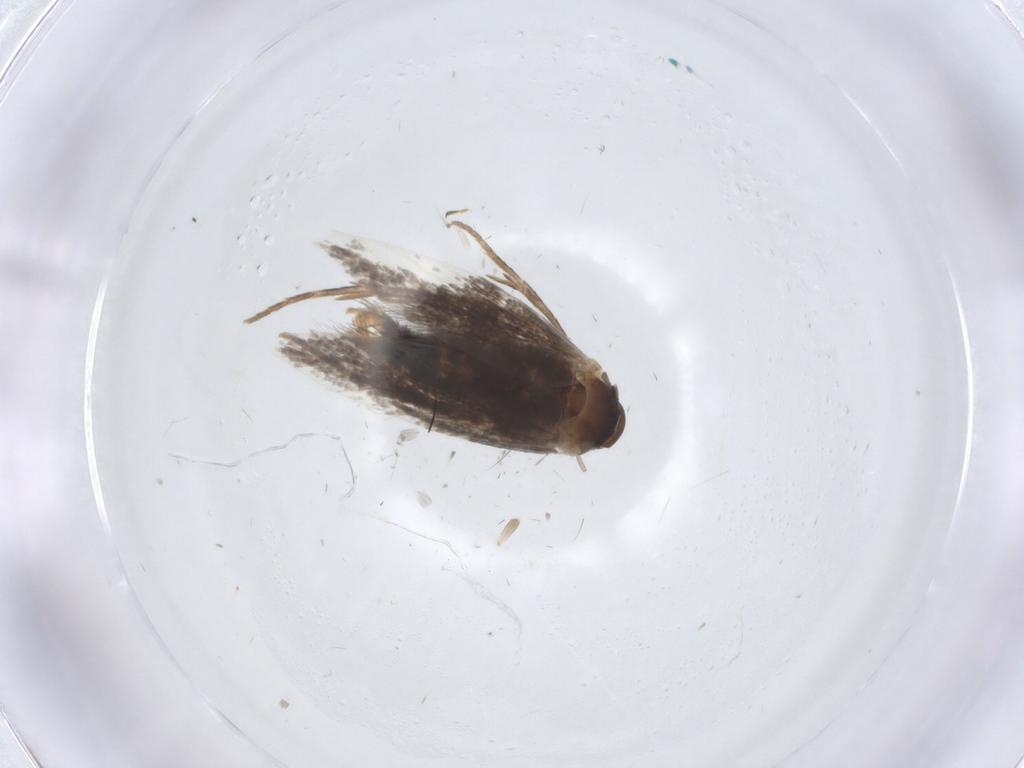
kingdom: Animalia
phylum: Arthropoda
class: Insecta
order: Lepidoptera
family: Elachistidae
